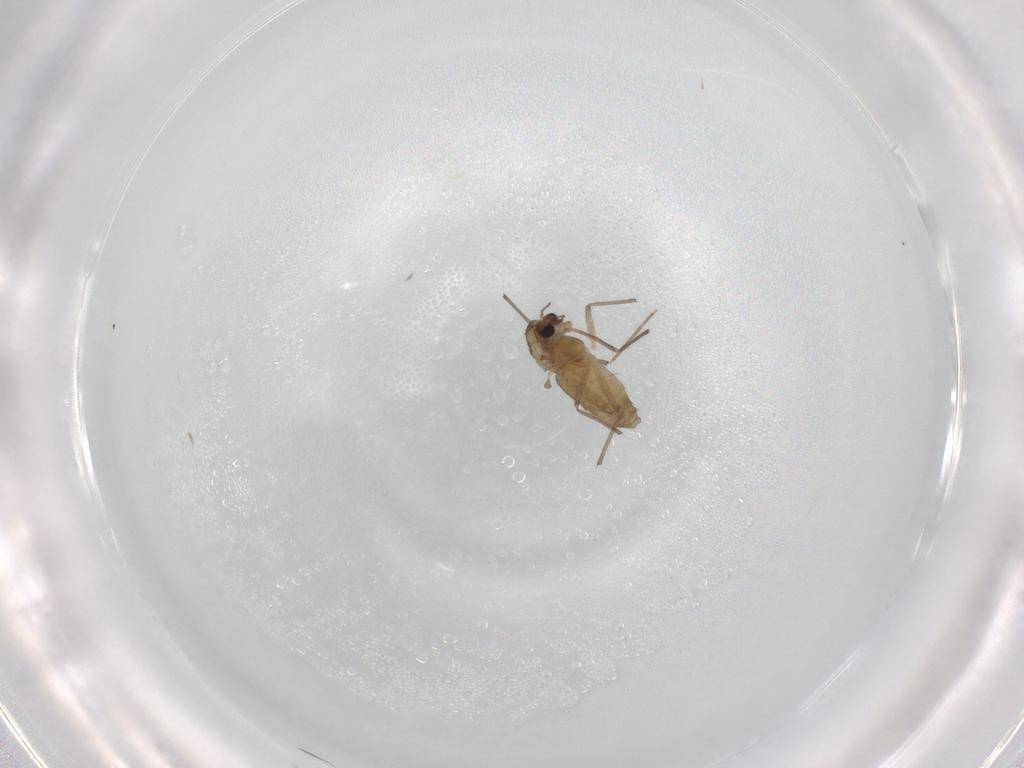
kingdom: Animalia
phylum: Arthropoda
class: Insecta
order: Diptera
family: Chironomidae
